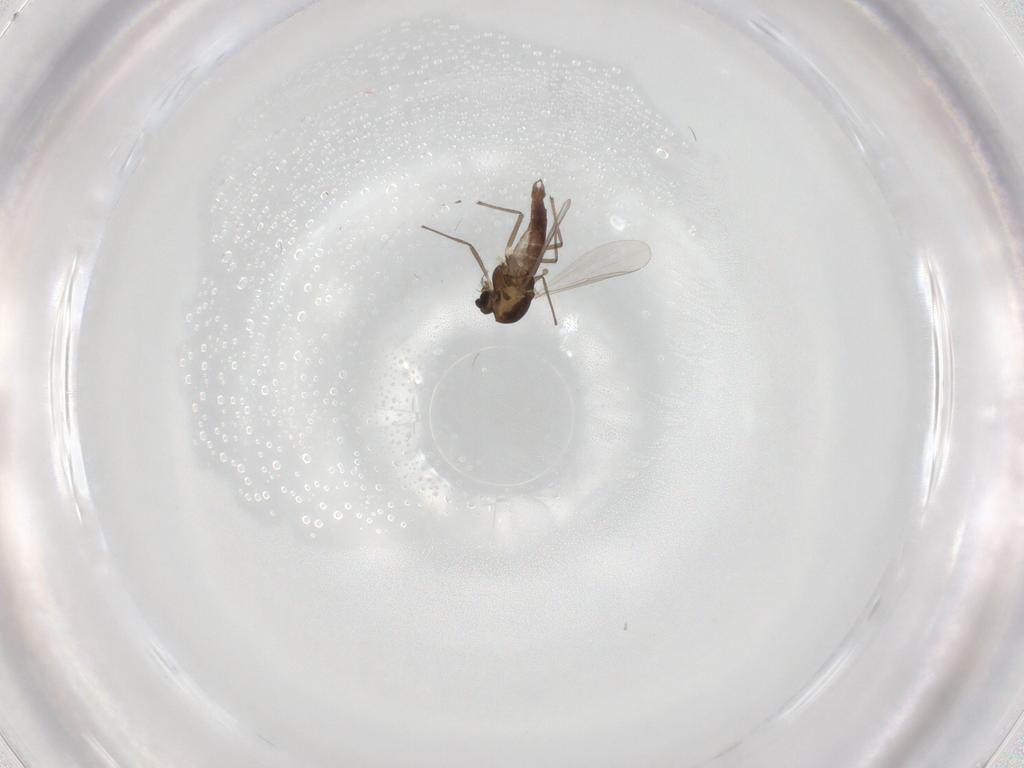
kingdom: Animalia
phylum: Arthropoda
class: Insecta
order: Diptera
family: Chironomidae
